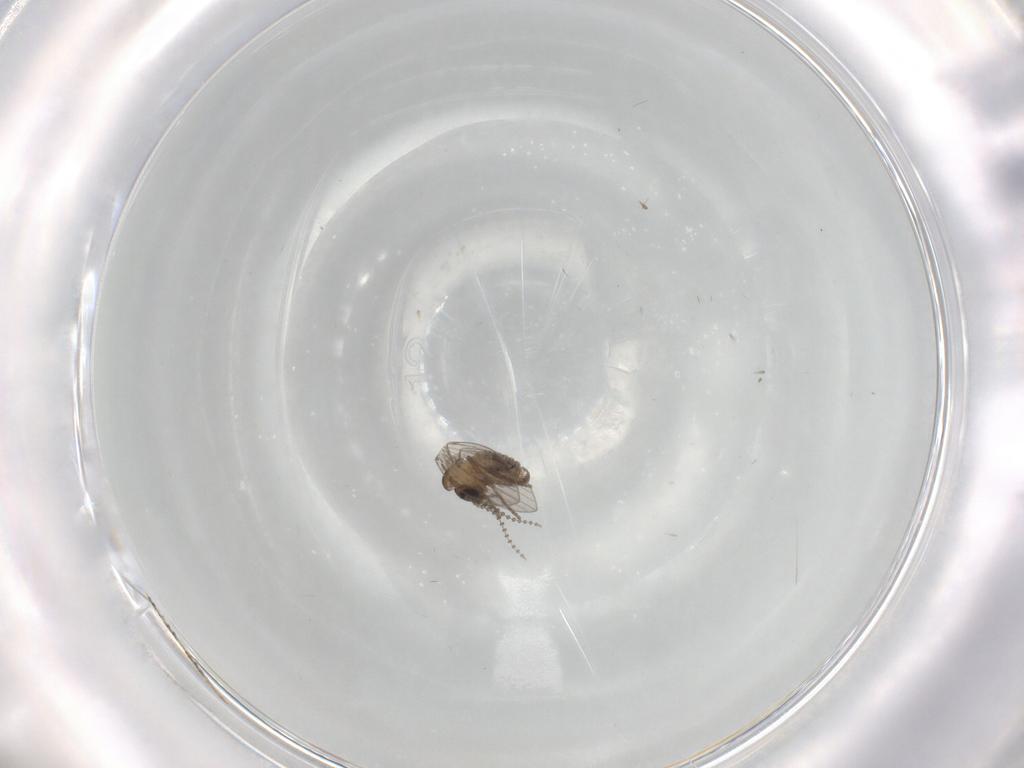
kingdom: Animalia
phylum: Arthropoda
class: Insecta
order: Diptera
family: Psychodidae
